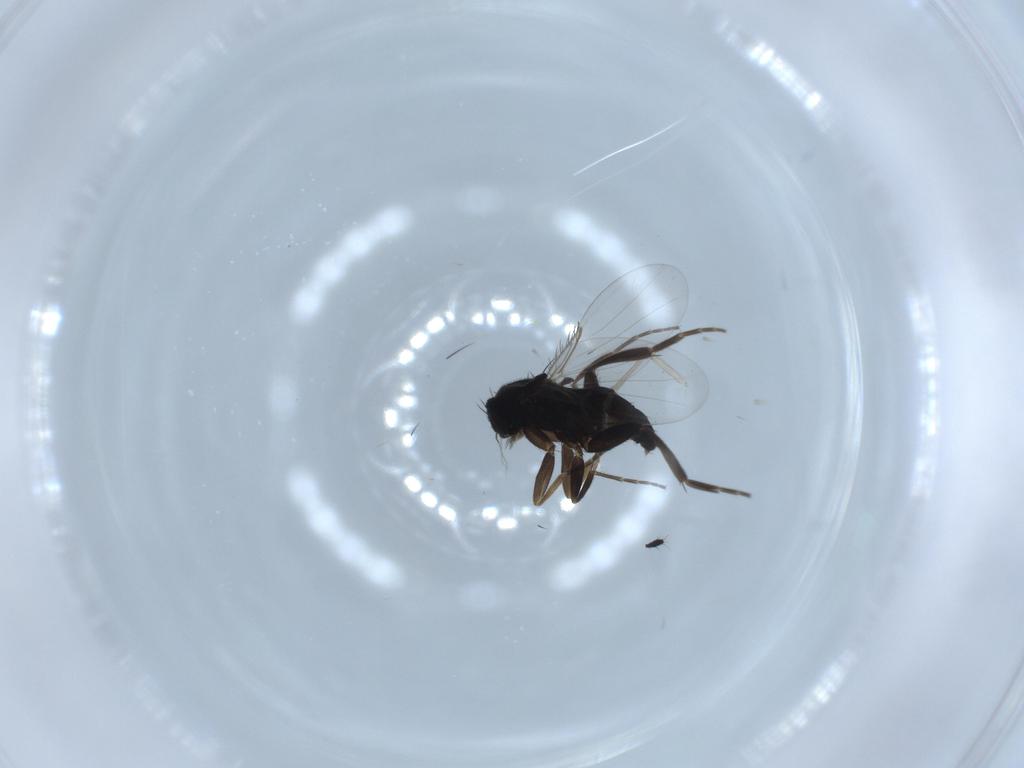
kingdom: Animalia
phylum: Arthropoda
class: Insecta
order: Diptera
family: Phoridae
